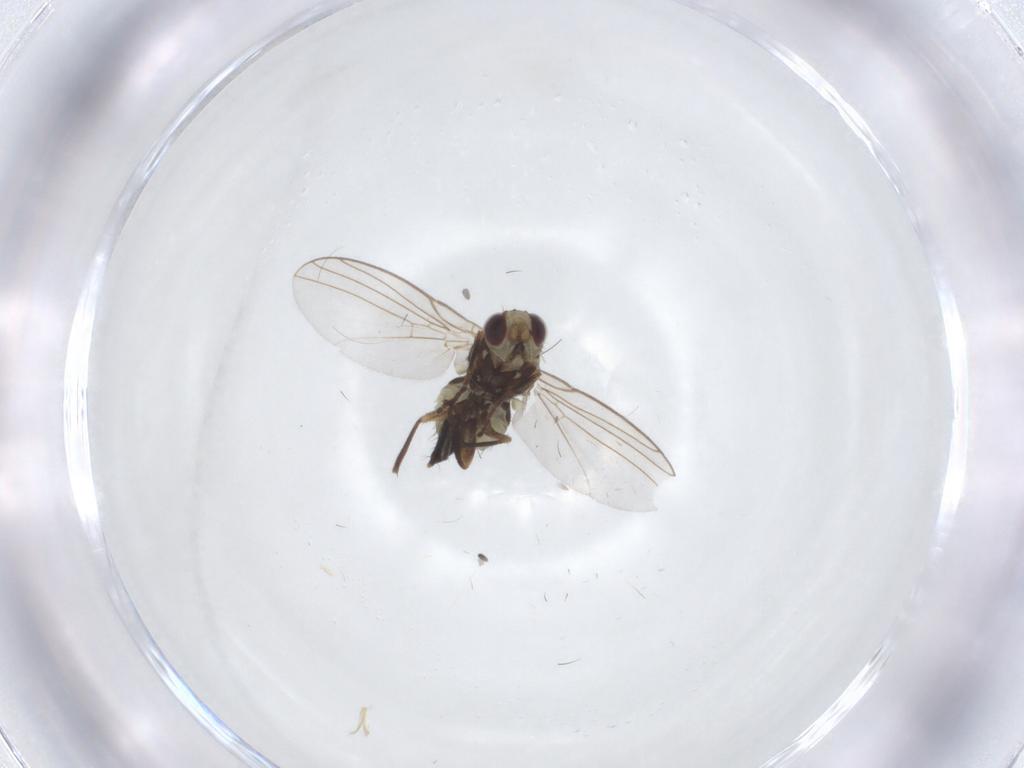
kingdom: Animalia
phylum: Arthropoda
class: Insecta
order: Diptera
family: Agromyzidae
